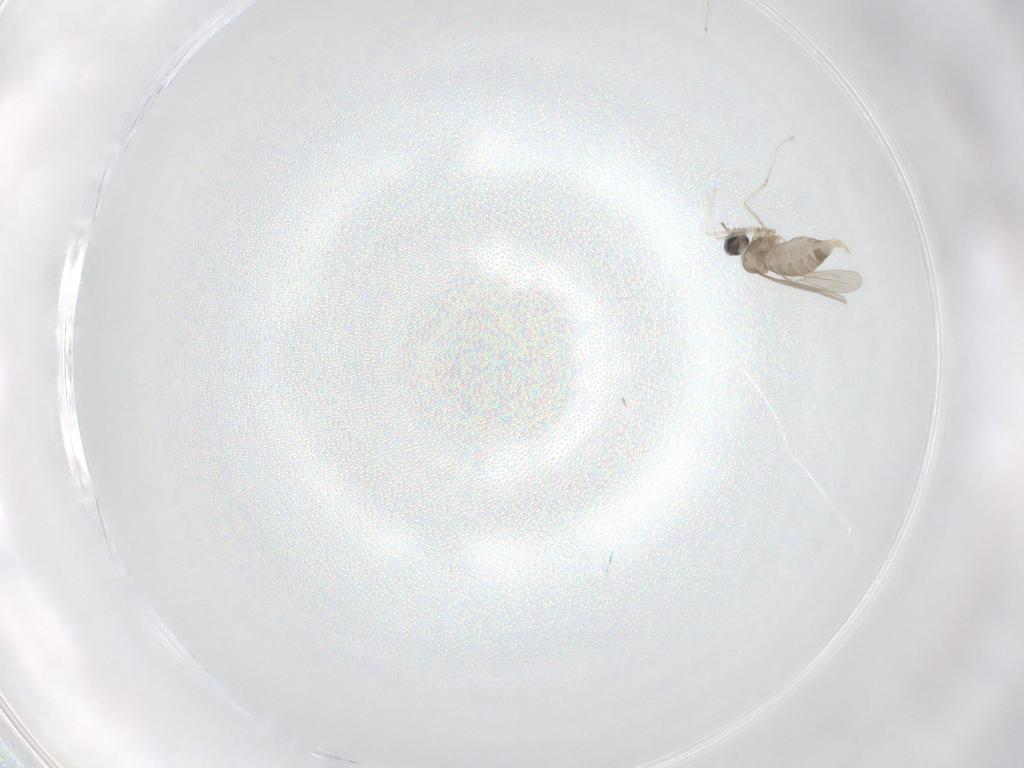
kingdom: Animalia
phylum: Arthropoda
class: Insecta
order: Diptera
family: Cecidomyiidae
